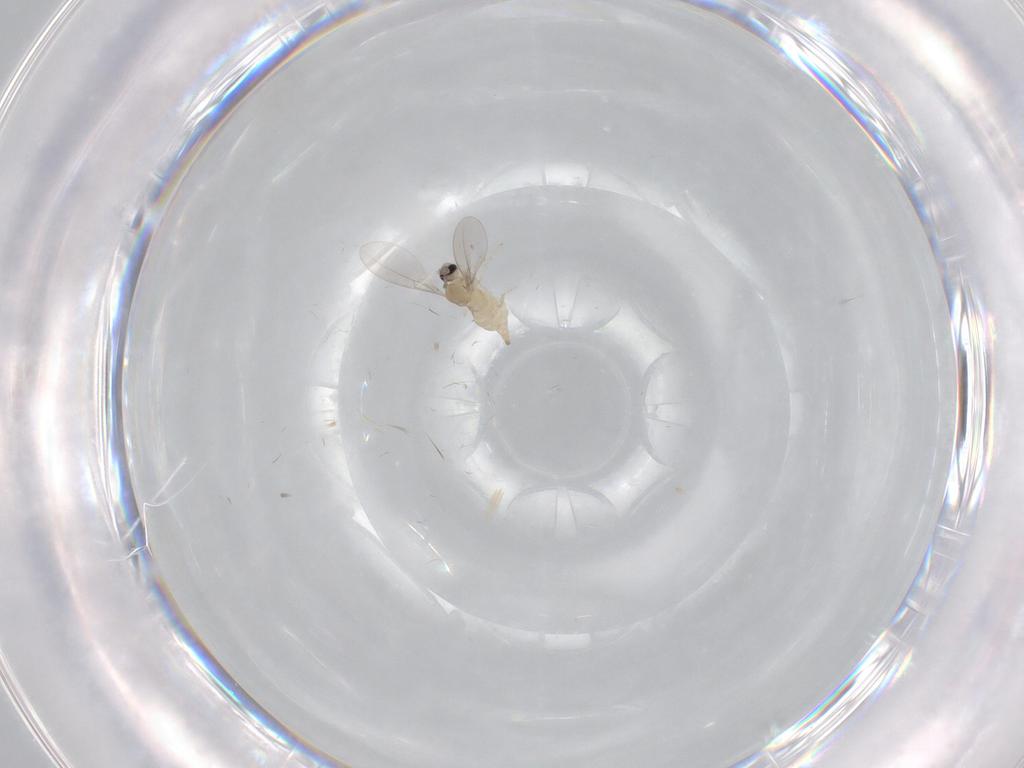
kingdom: Animalia
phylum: Arthropoda
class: Insecta
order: Diptera
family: Cecidomyiidae
